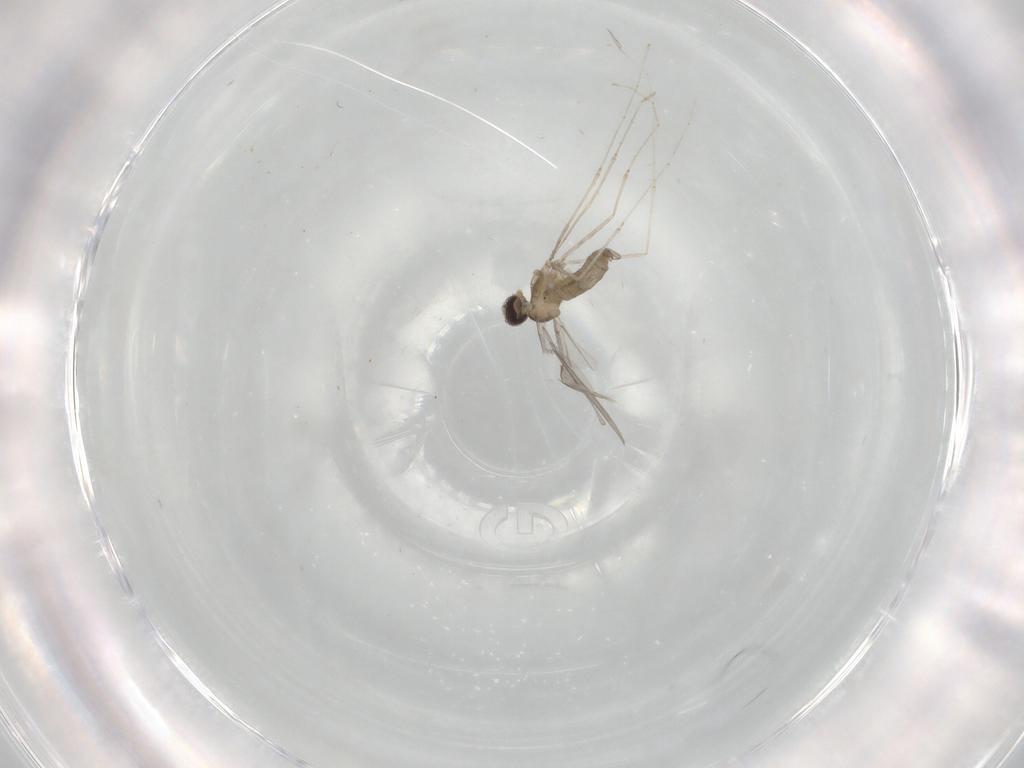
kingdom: Animalia
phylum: Arthropoda
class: Insecta
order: Diptera
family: Cecidomyiidae
